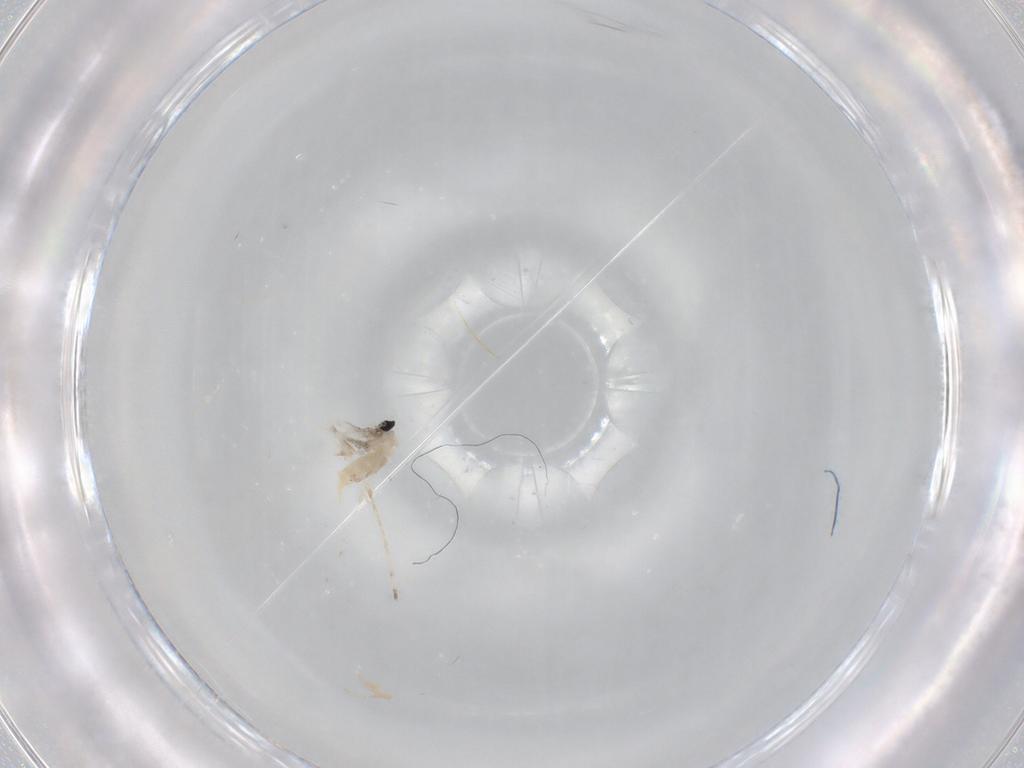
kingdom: Animalia
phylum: Arthropoda
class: Insecta
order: Diptera
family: Cecidomyiidae
